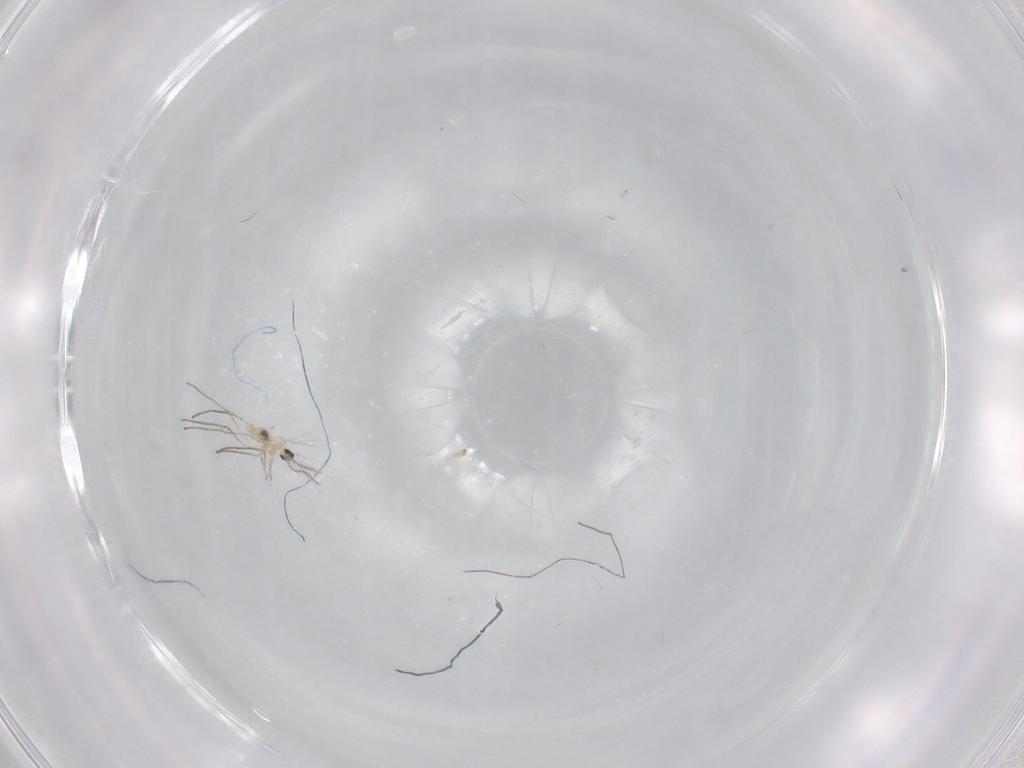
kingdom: Animalia
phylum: Arthropoda
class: Insecta
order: Diptera
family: Cecidomyiidae
